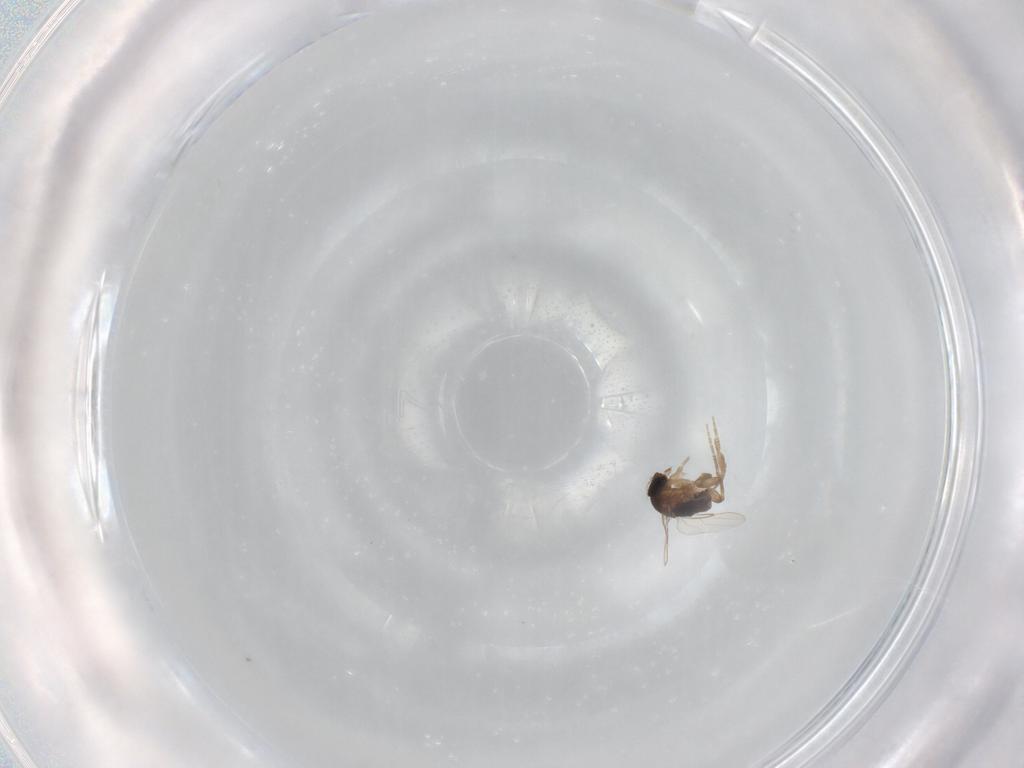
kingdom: Animalia
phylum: Arthropoda
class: Insecta
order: Diptera
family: Phoridae
